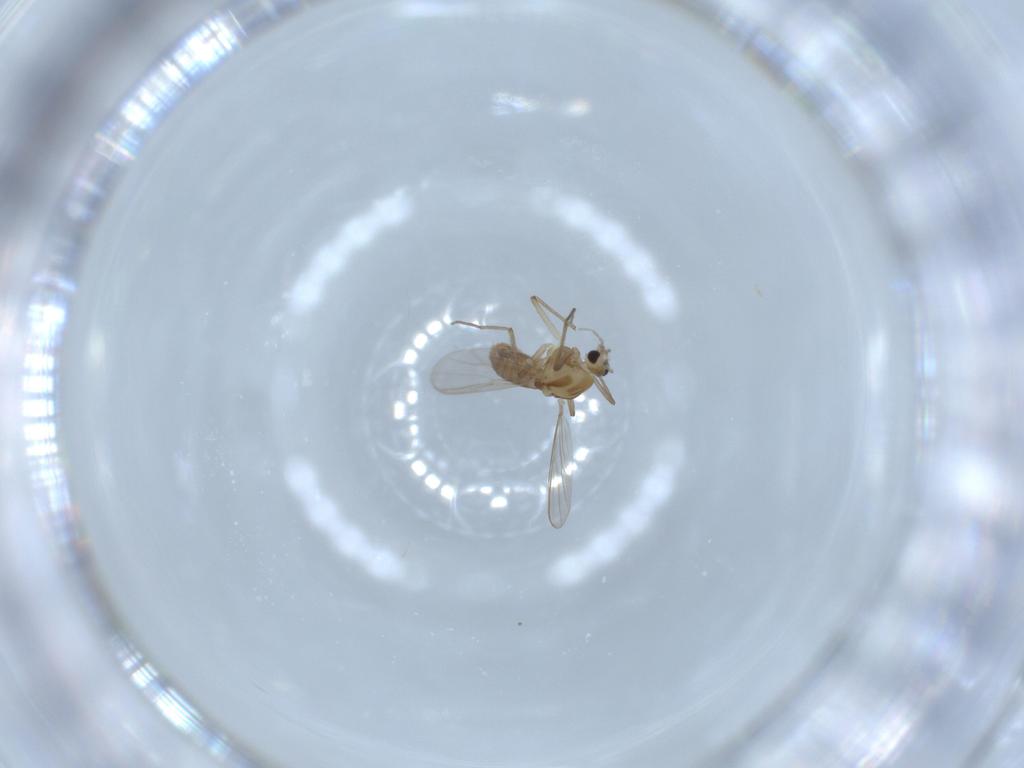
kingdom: Animalia
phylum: Arthropoda
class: Insecta
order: Diptera
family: Chironomidae
